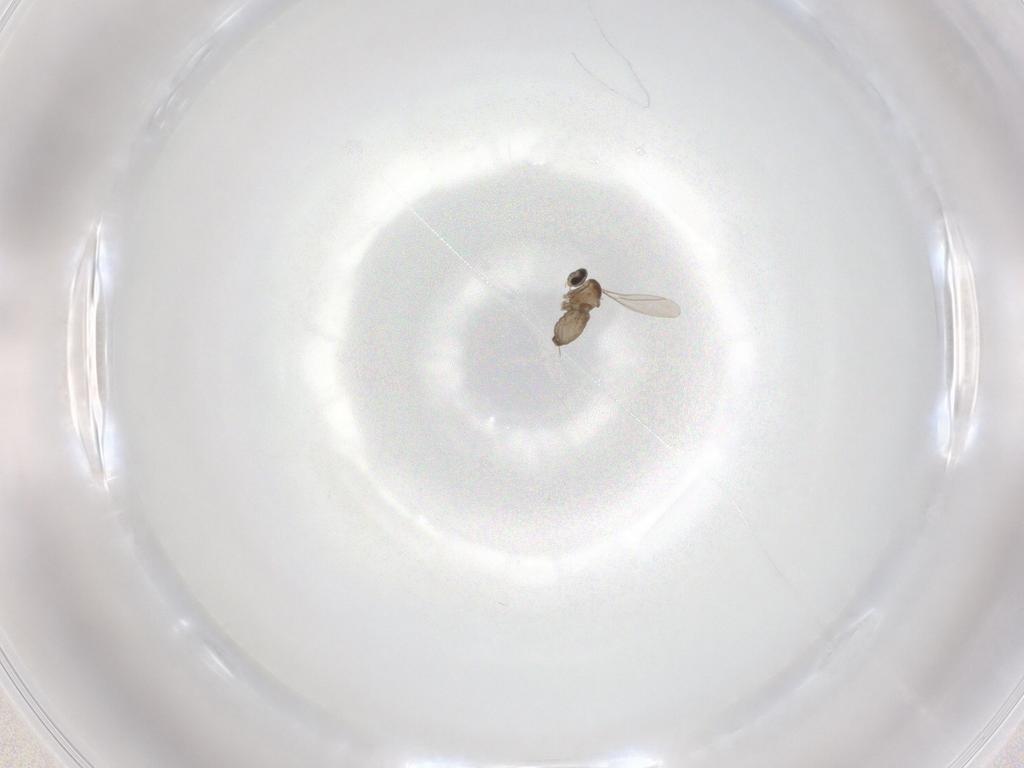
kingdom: Animalia
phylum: Arthropoda
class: Insecta
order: Diptera
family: Cecidomyiidae
